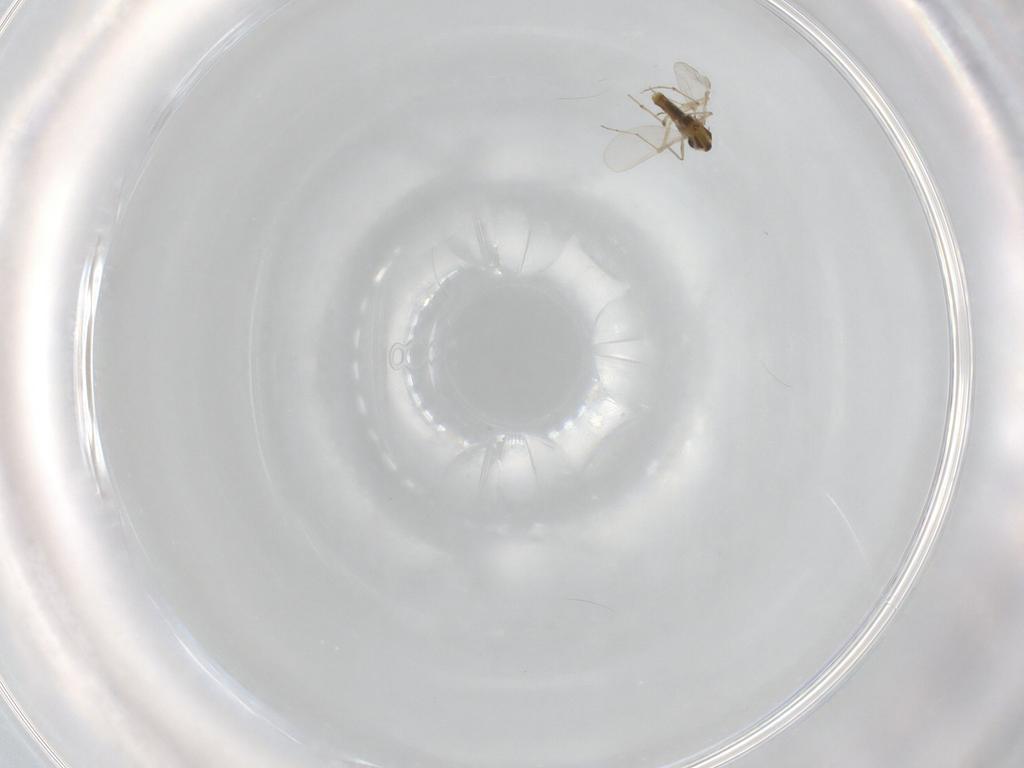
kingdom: Animalia
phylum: Arthropoda
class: Insecta
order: Diptera
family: Chironomidae
